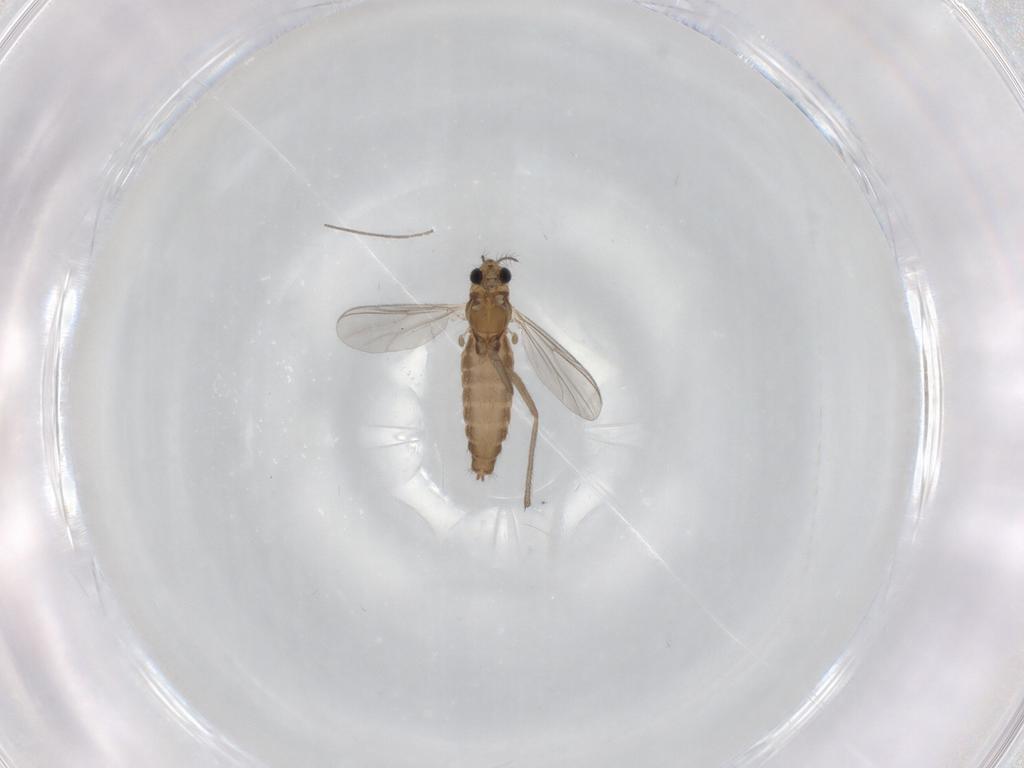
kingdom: Animalia
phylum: Arthropoda
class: Insecta
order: Diptera
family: Chironomidae
